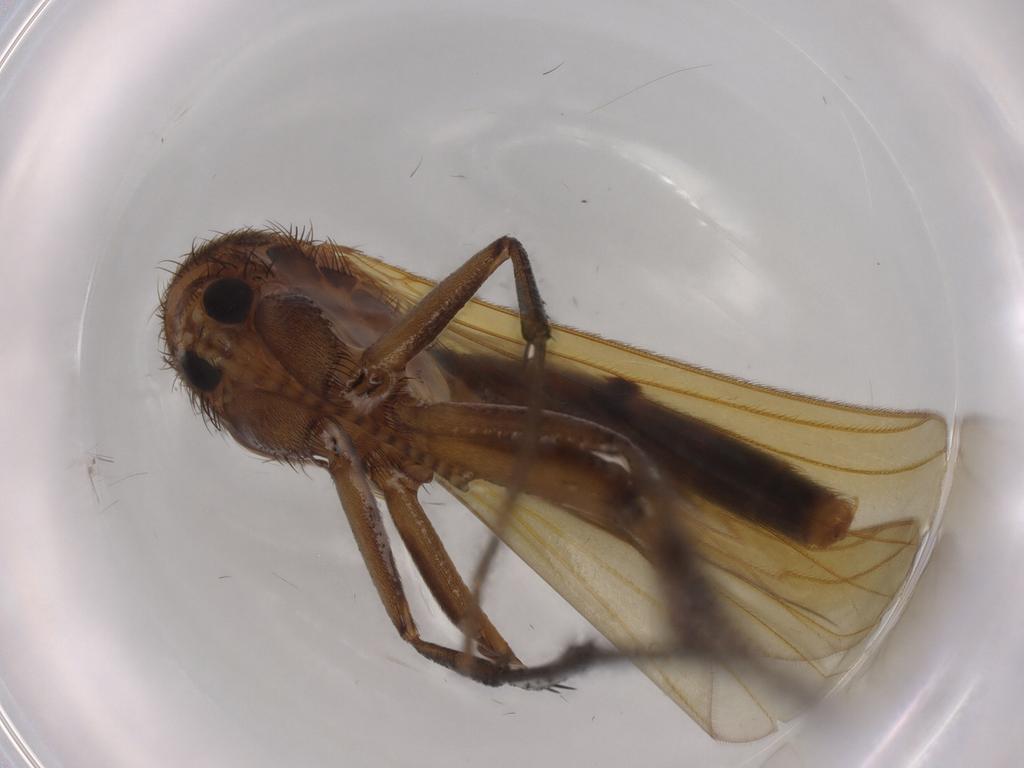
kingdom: Animalia
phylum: Arthropoda
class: Insecta
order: Diptera
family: Mycetophilidae
